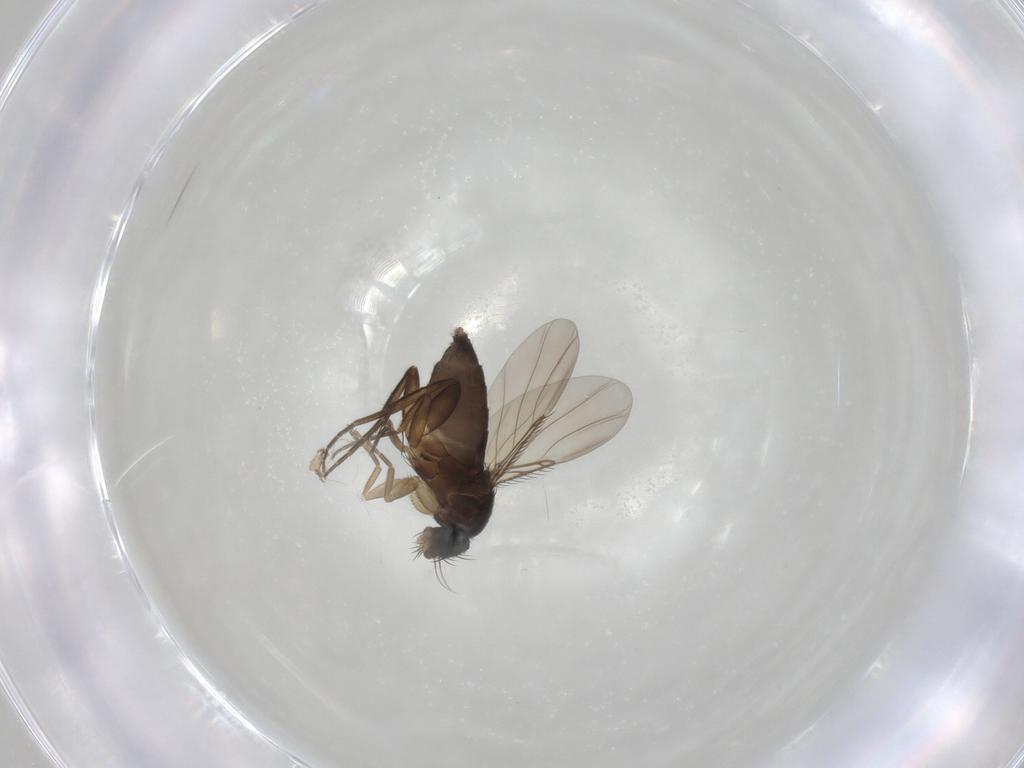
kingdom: Animalia
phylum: Arthropoda
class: Insecta
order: Diptera
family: Phoridae
